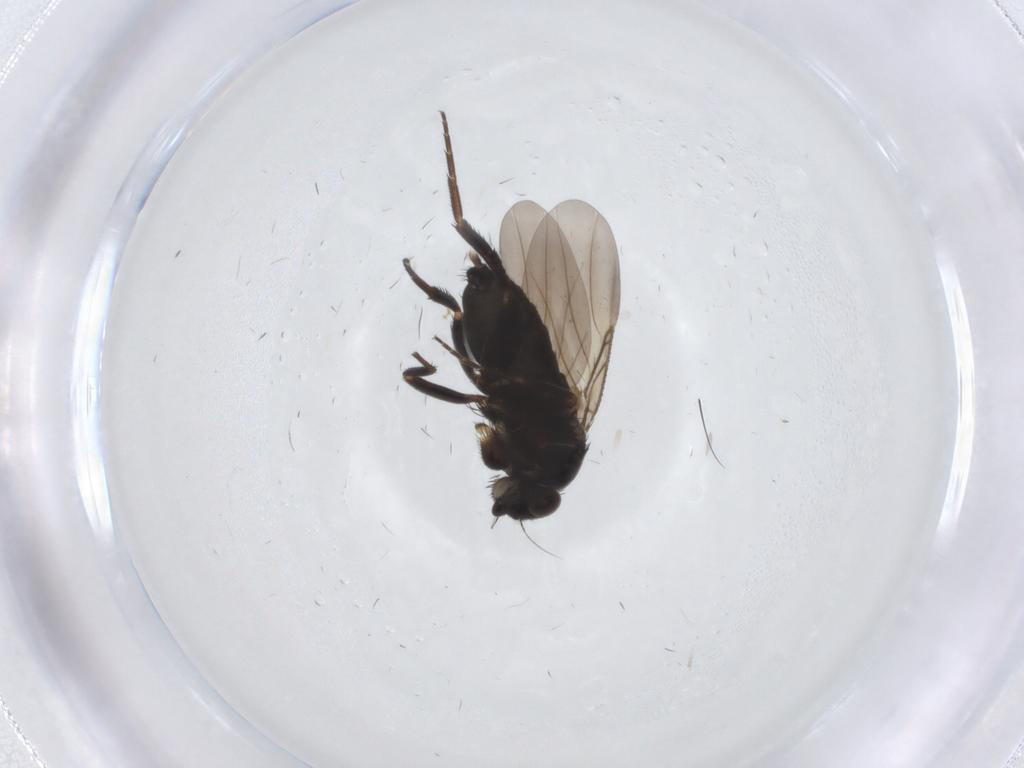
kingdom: Animalia
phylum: Arthropoda
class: Insecta
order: Diptera
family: Phoridae
